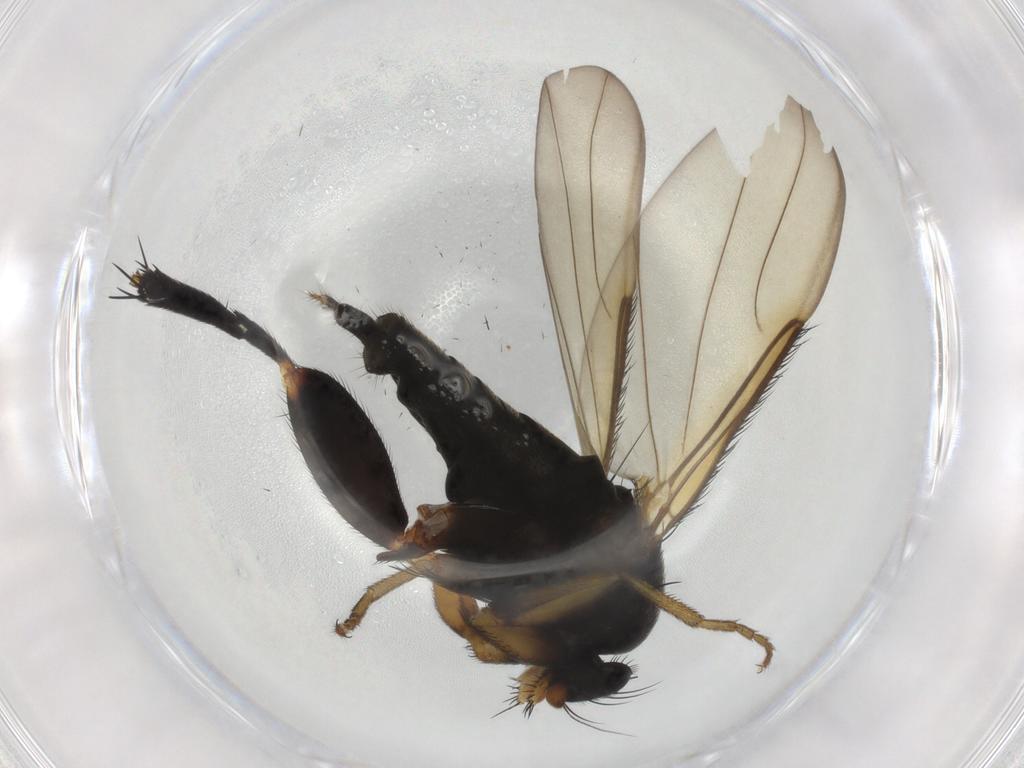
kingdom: Animalia
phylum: Arthropoda
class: Insecta
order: Diptera
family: Phoridae
